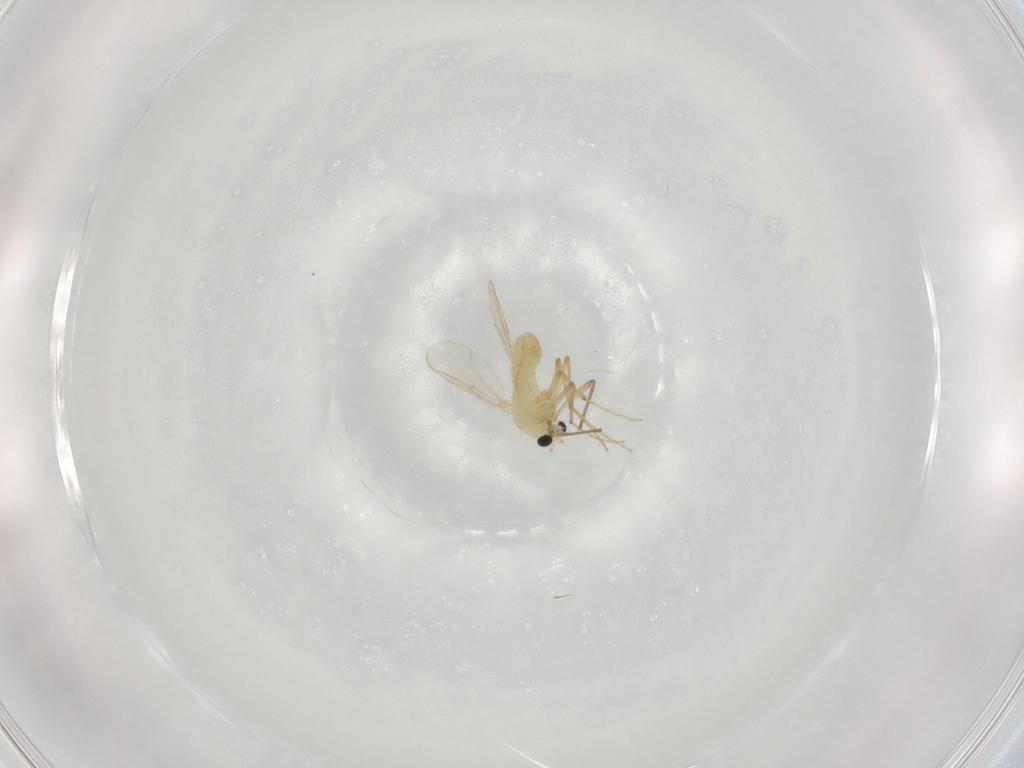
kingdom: Animalia
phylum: Arthropoda
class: Insecta
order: Diptera
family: Chironomidae
